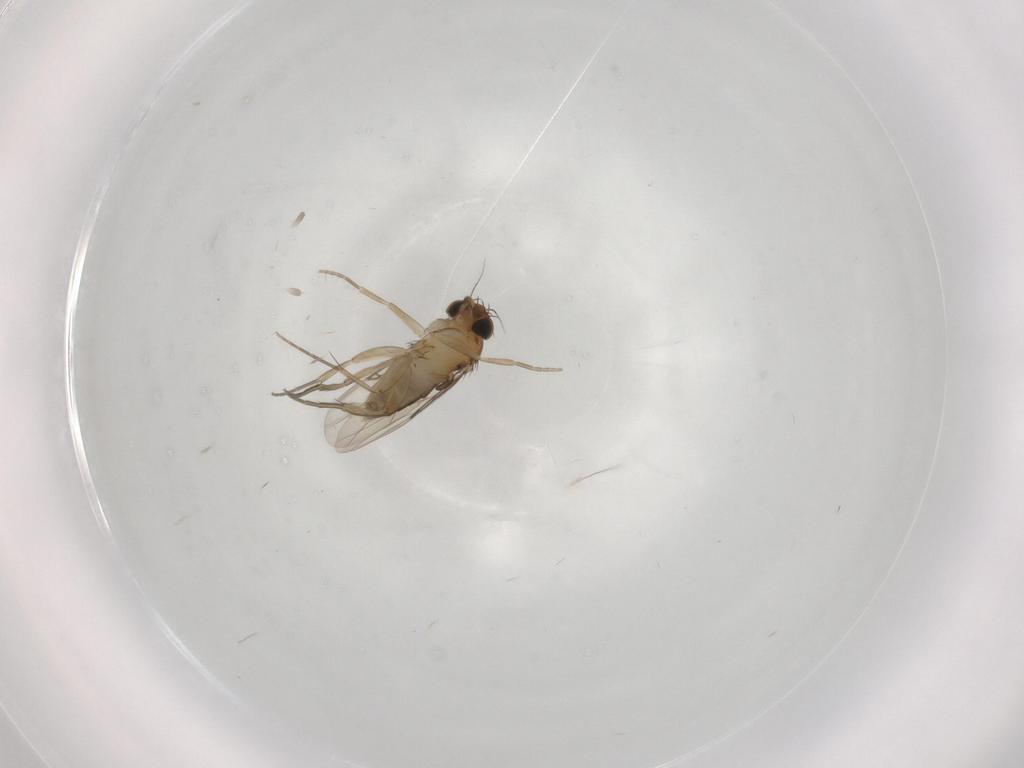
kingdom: Animalia
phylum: Arthropoda
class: Insecta
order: Diptera
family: Phoridae
